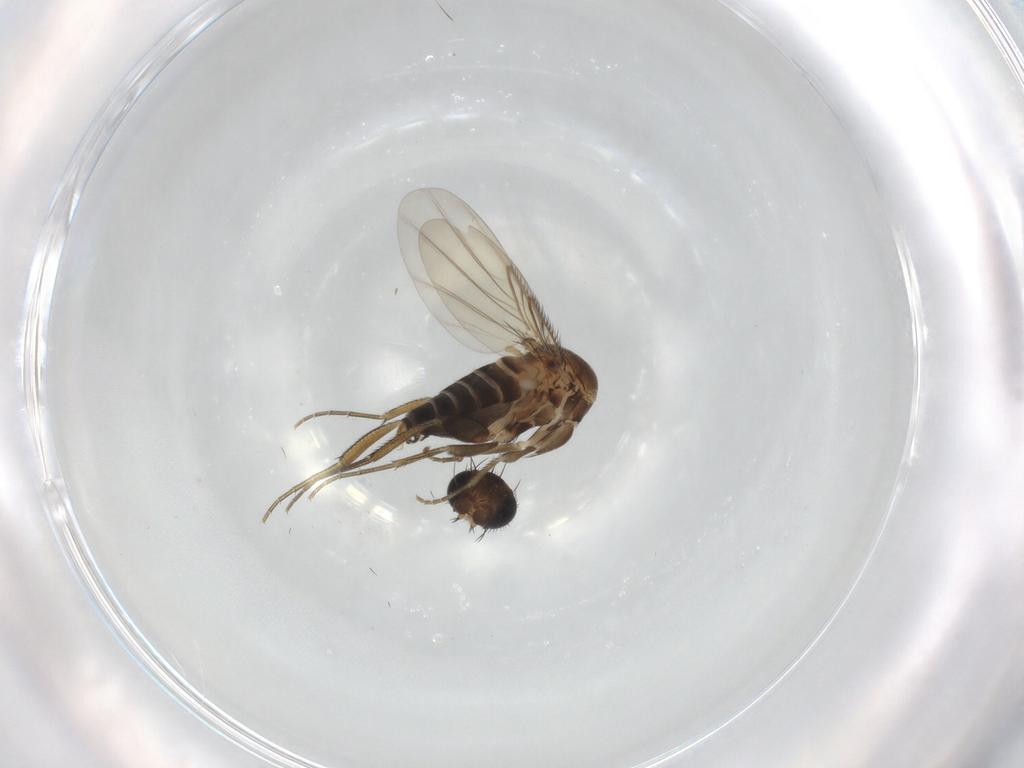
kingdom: Animalia
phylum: Arthropoda
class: Insecta
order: Diptera
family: Phoridae
